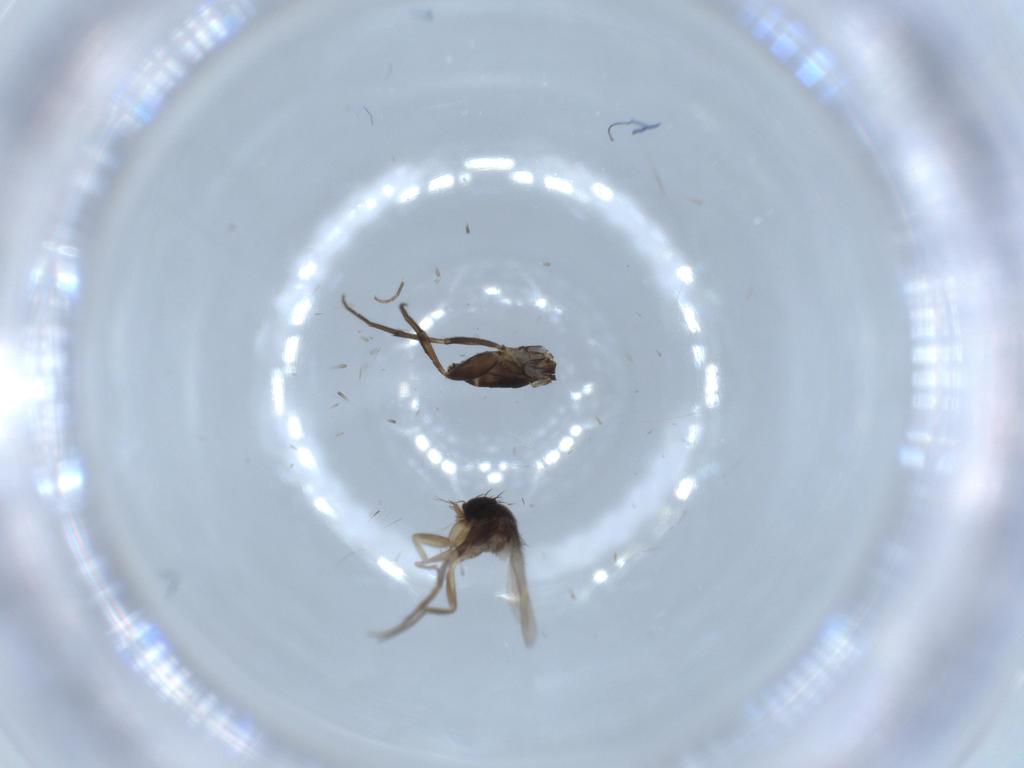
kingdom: Animalia
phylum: Arthropoda
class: Insecta
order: Diptera
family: Phoridae
